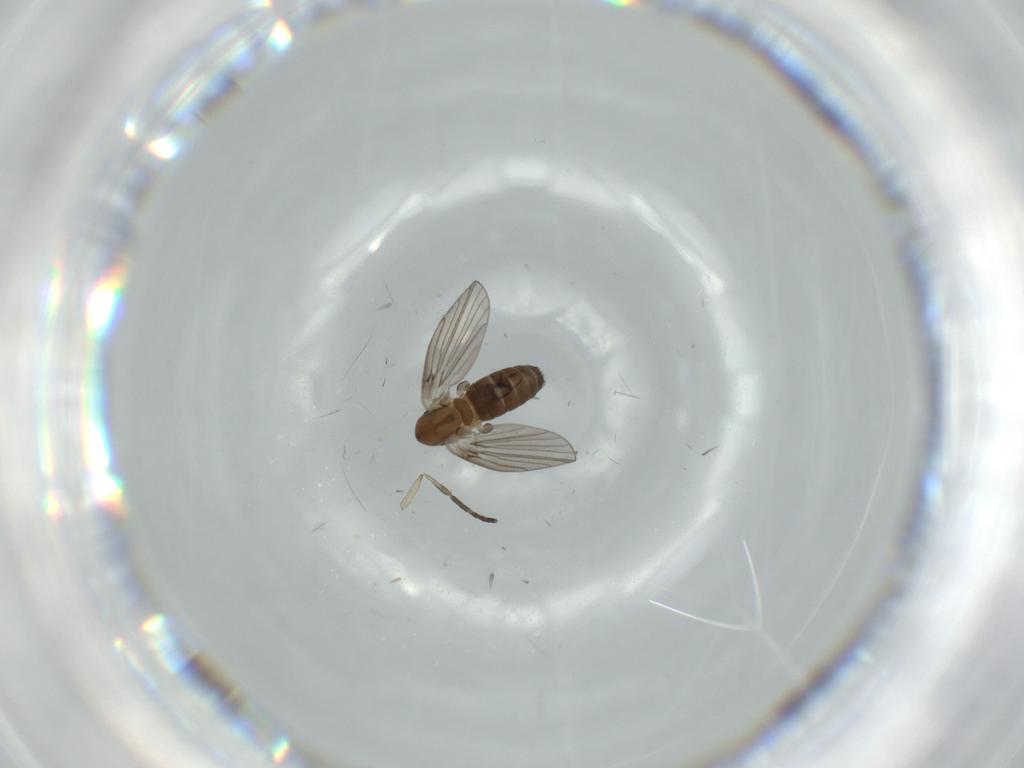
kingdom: Animalia
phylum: Arthropoda
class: Insecta
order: Diptera
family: Psychodidae
